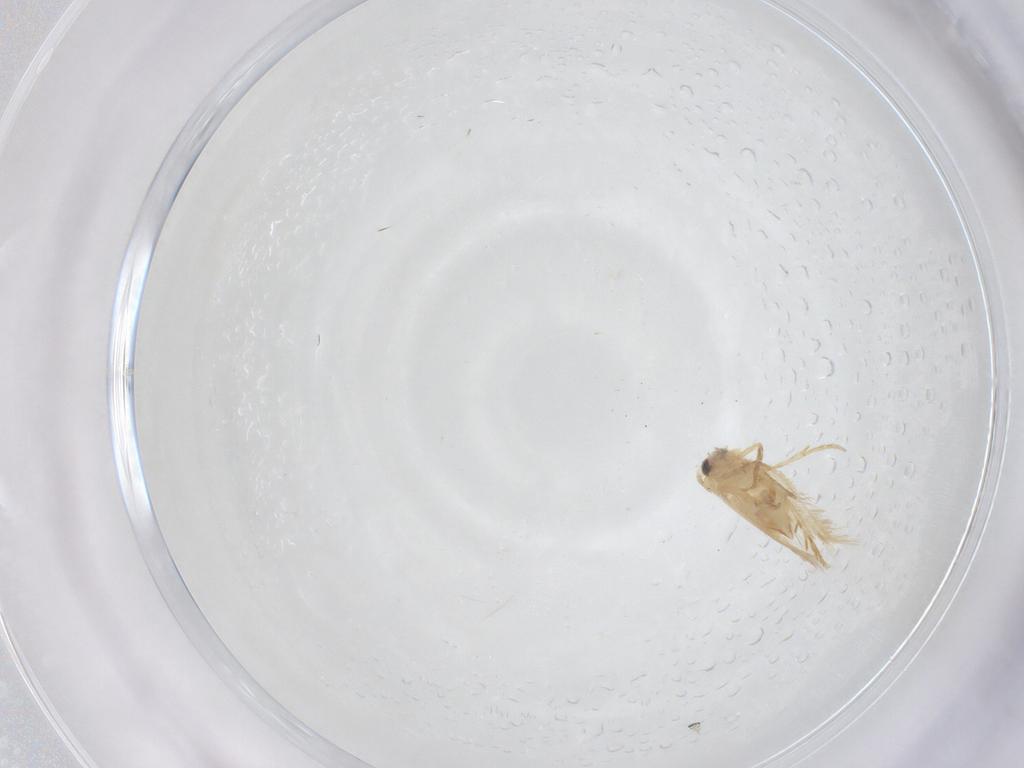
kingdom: Animalia
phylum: Arthropoda
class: Insecta
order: Lepidoptera
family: Nepticulidae
